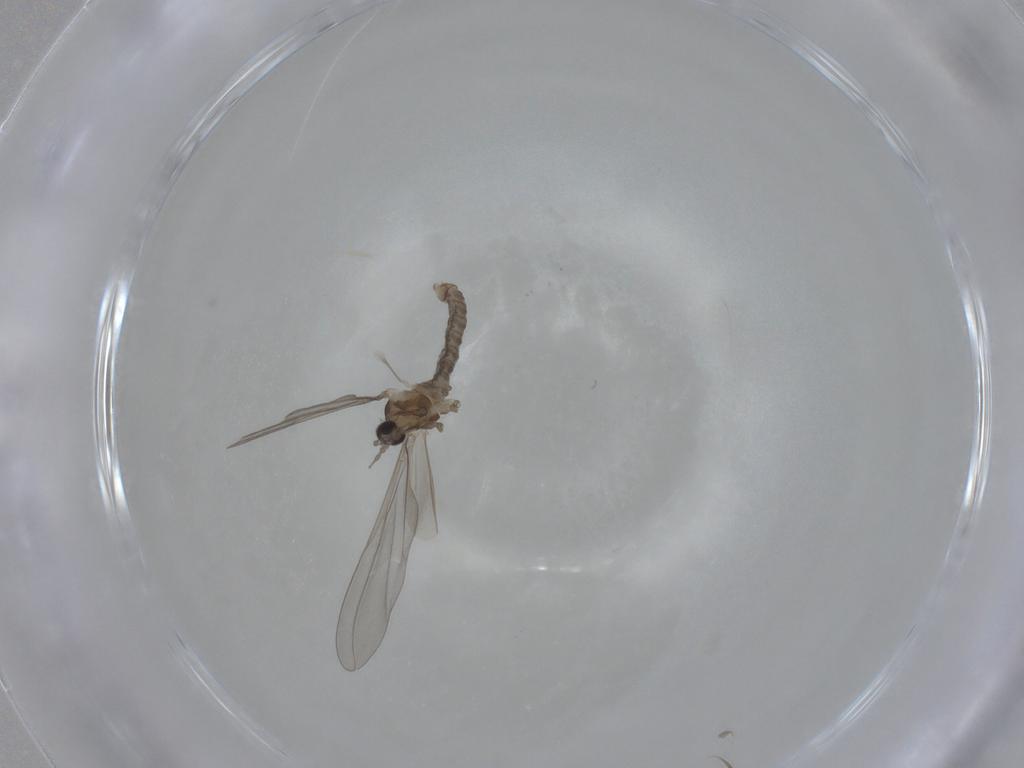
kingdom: Animalia
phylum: Arthropoda
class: Insecta
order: Diptera
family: Cecidomyiidae
